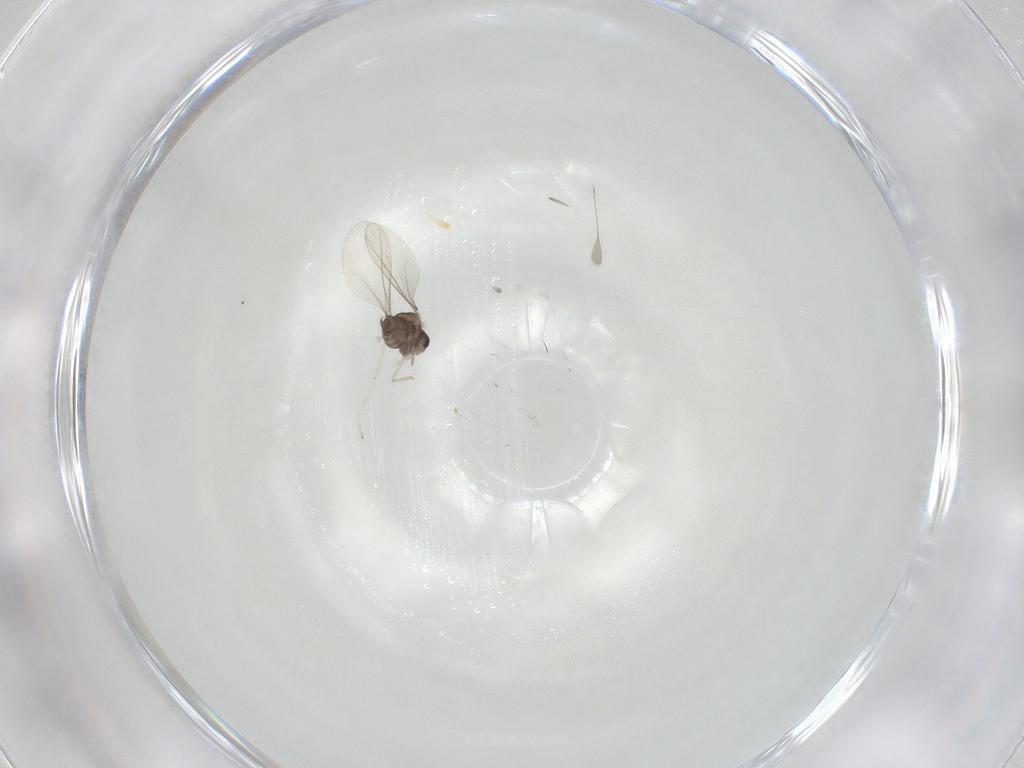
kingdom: Animalia
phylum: Arthropoda
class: Insecta
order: Diptera
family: Cecidomyiidae
